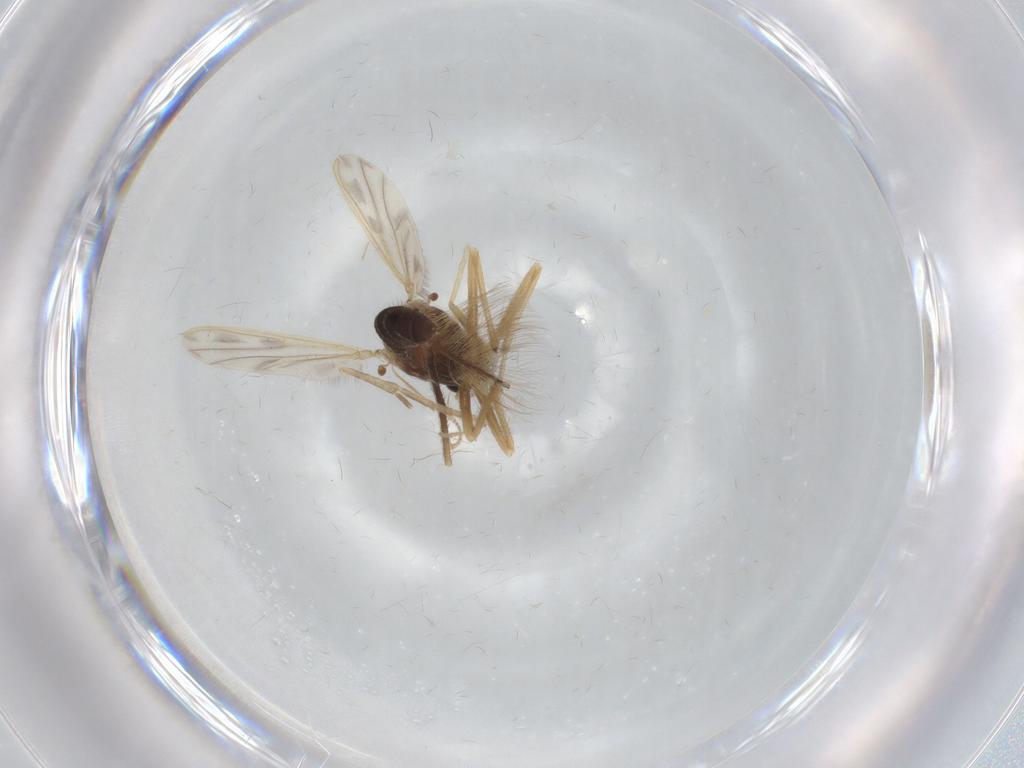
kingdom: Animalia
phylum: Arthropoda
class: Insecta
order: Diptera
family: Chironomidae
